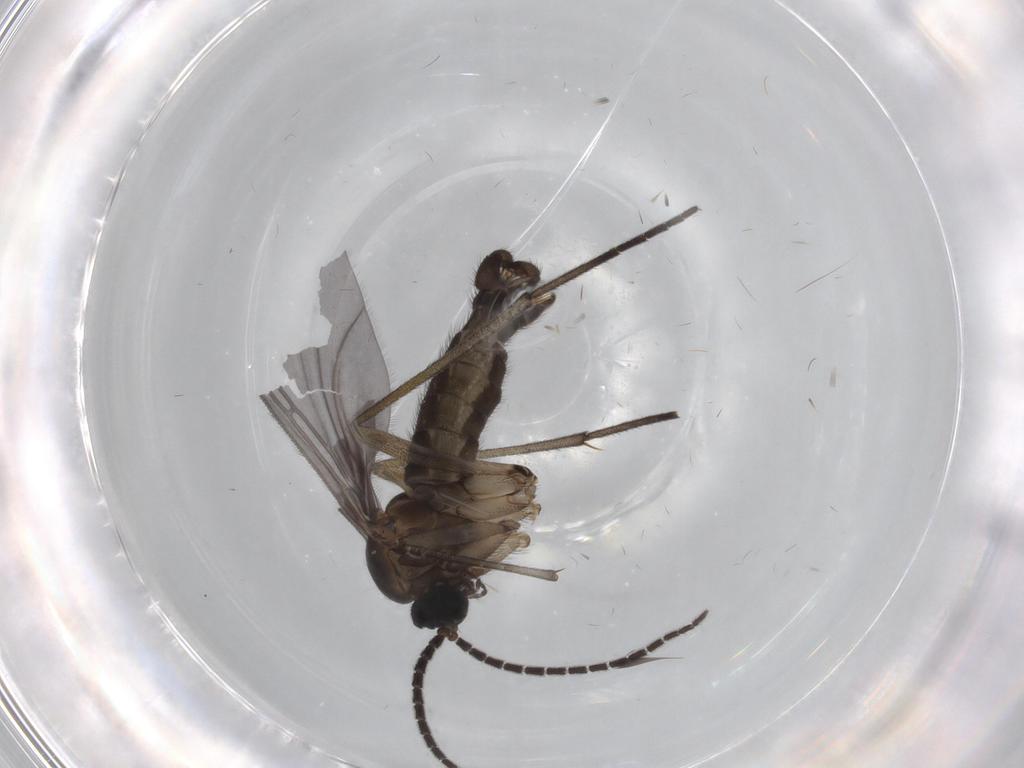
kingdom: Animalia
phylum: Arthropoda
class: Insecta
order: Diptera
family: Sciaridae
